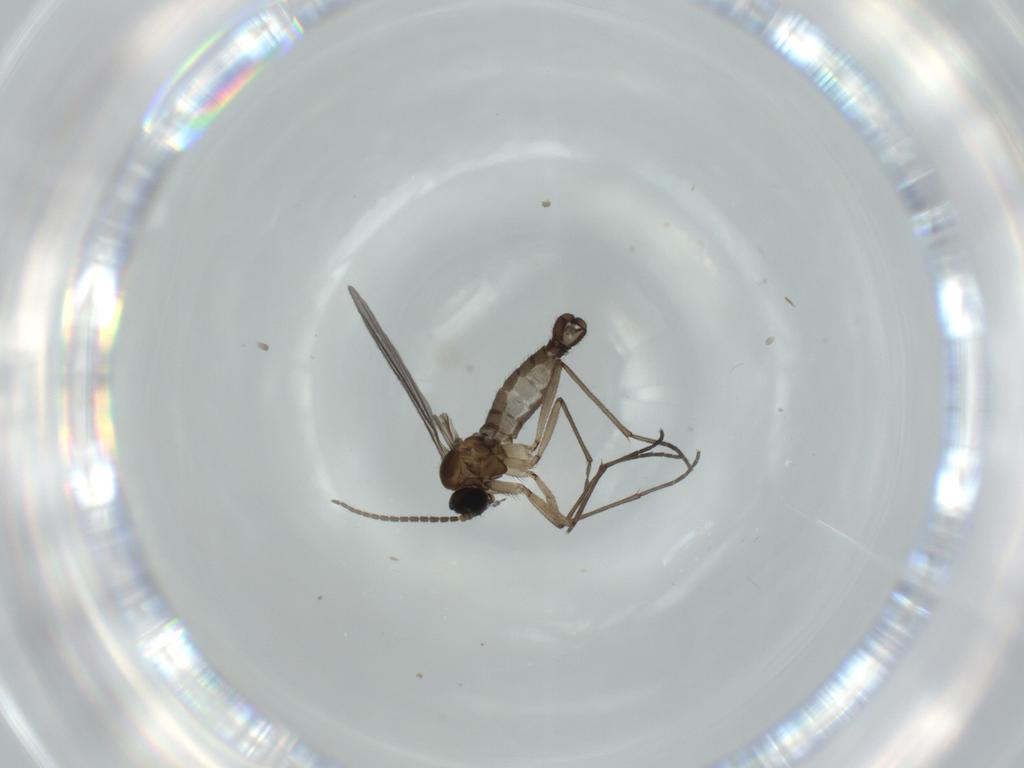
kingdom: Animalia
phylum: Arthropoda
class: Insecta
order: Diptera
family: Sciaridae
